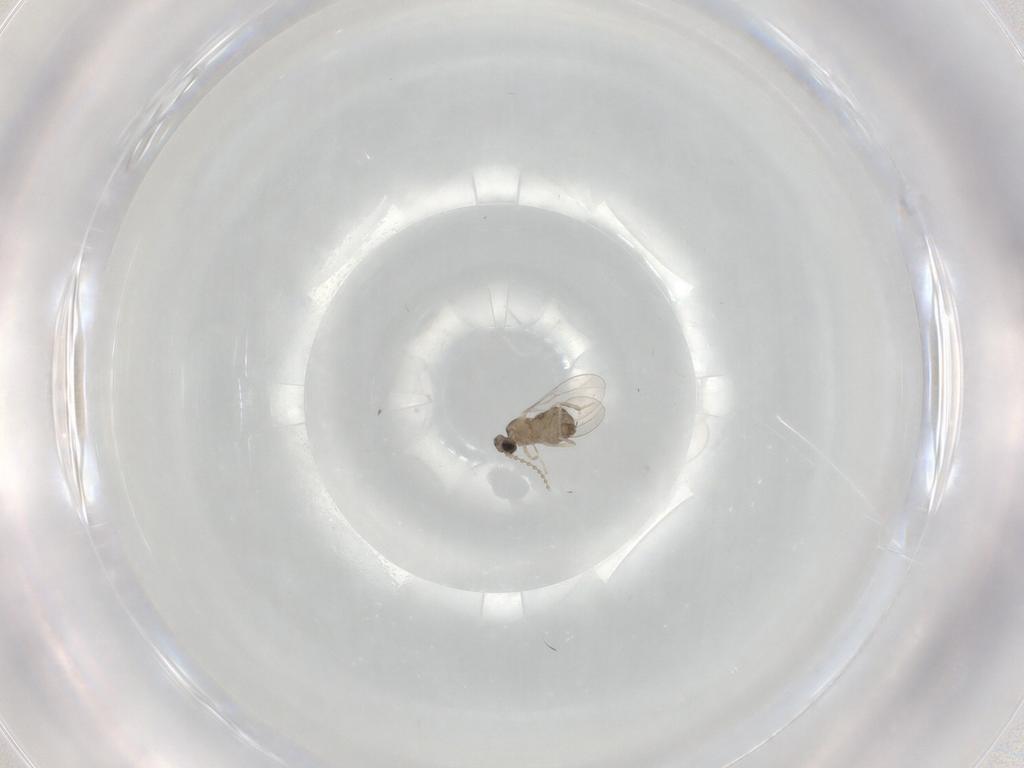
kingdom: Animalia
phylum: Arthropoda
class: Insecta
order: Diptera
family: Cecidomyiidae
